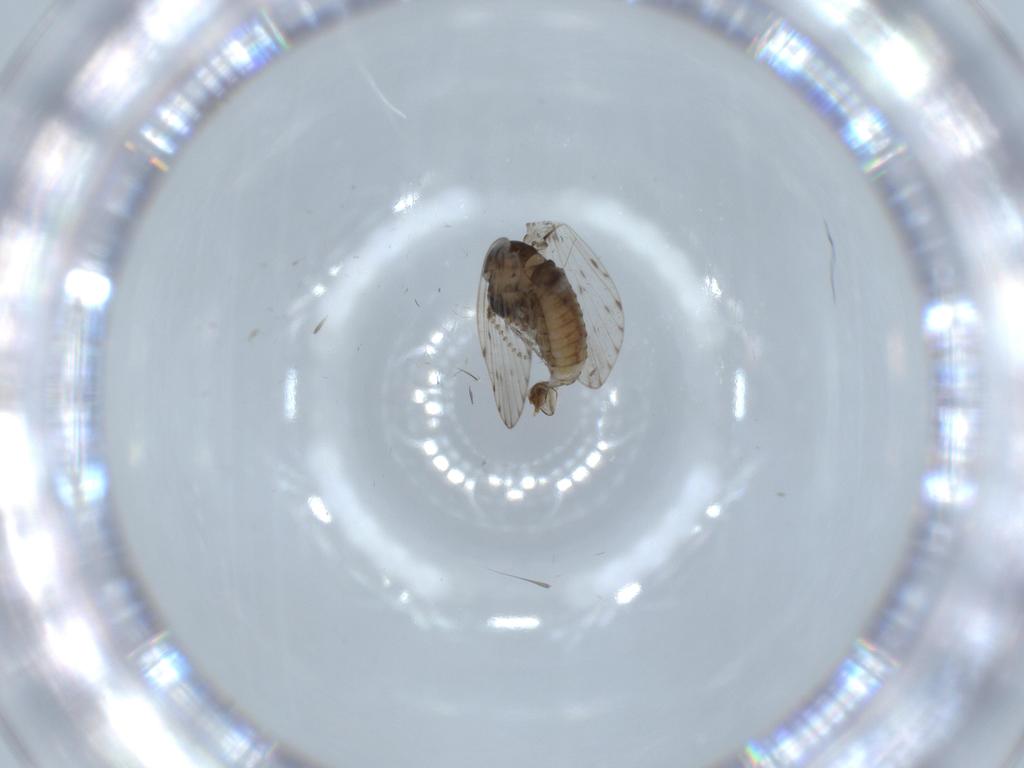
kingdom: Animalia
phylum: Arthropoda
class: Insecta
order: Diptera
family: Psychodidae
